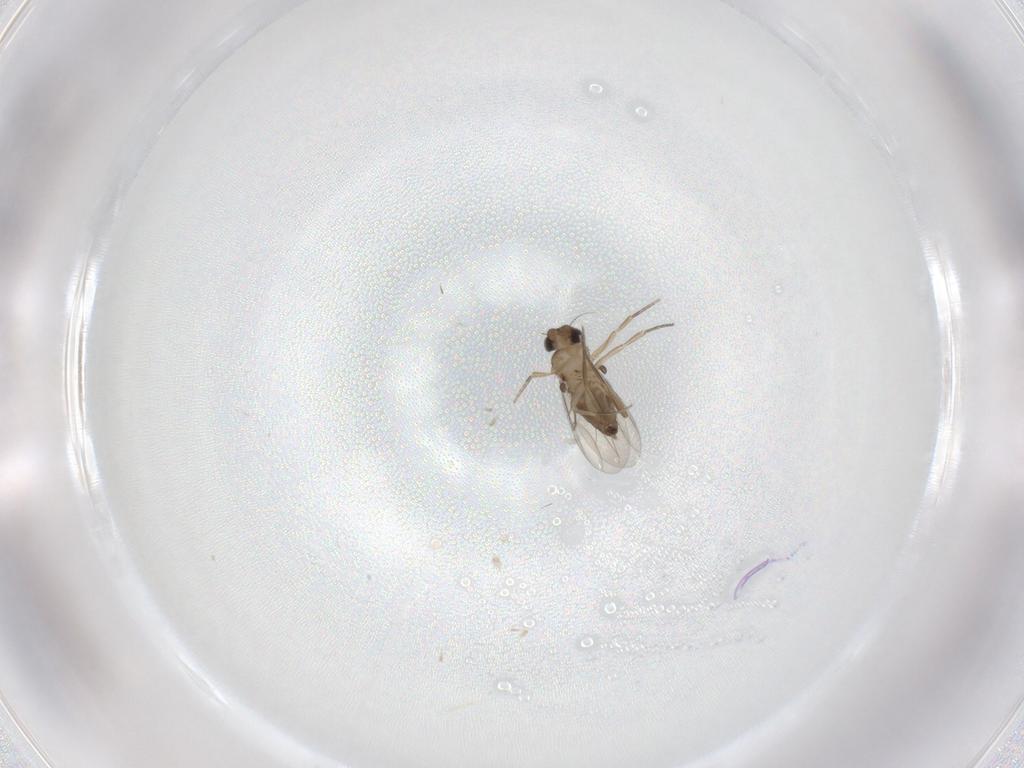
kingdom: Animalia
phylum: Arthropoda
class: Insecta
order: Diptera
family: Phoridae
